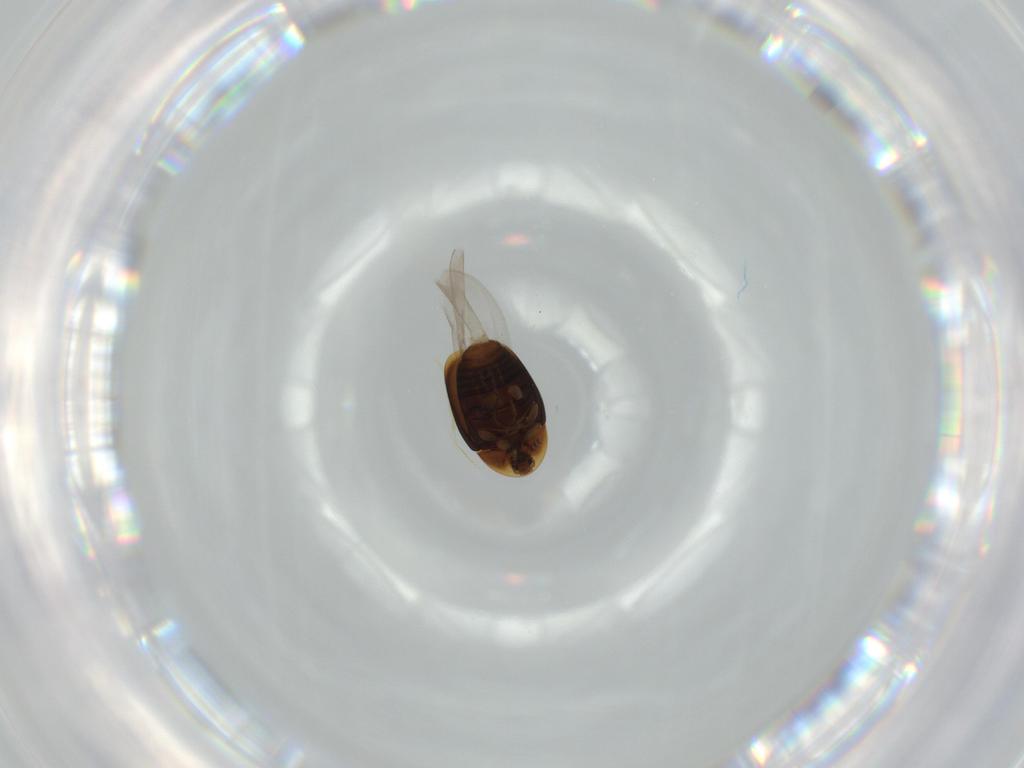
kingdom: Animalia
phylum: Arthropoda
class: Insecta
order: Coleoptera
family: Corylophidae
